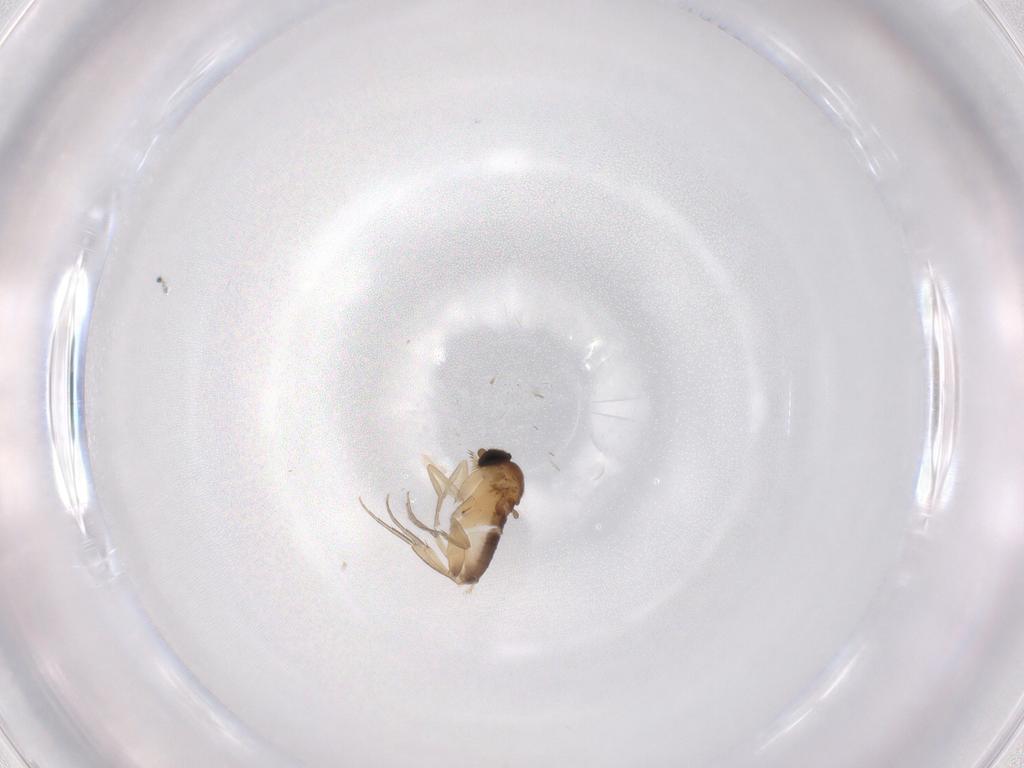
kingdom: Animalia
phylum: Arthropoda
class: Insecta
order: Diptera
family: Phoridae
